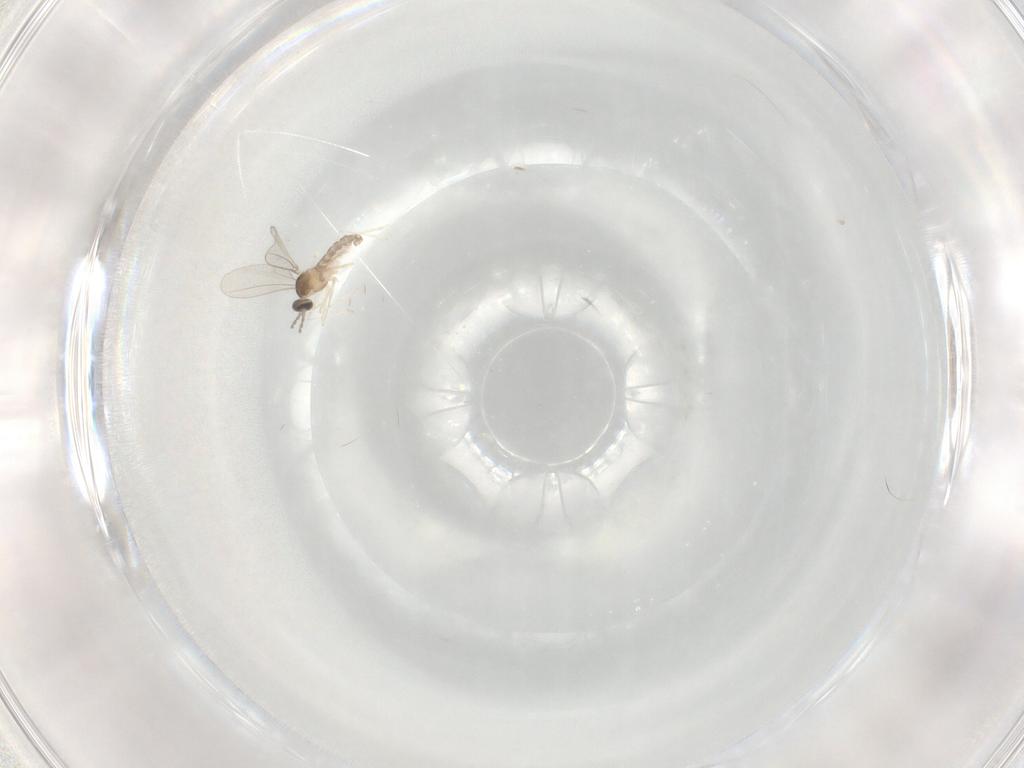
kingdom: Animalia
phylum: Arthropoda
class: Insecta
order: Diptera
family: Cecidomyiidae
